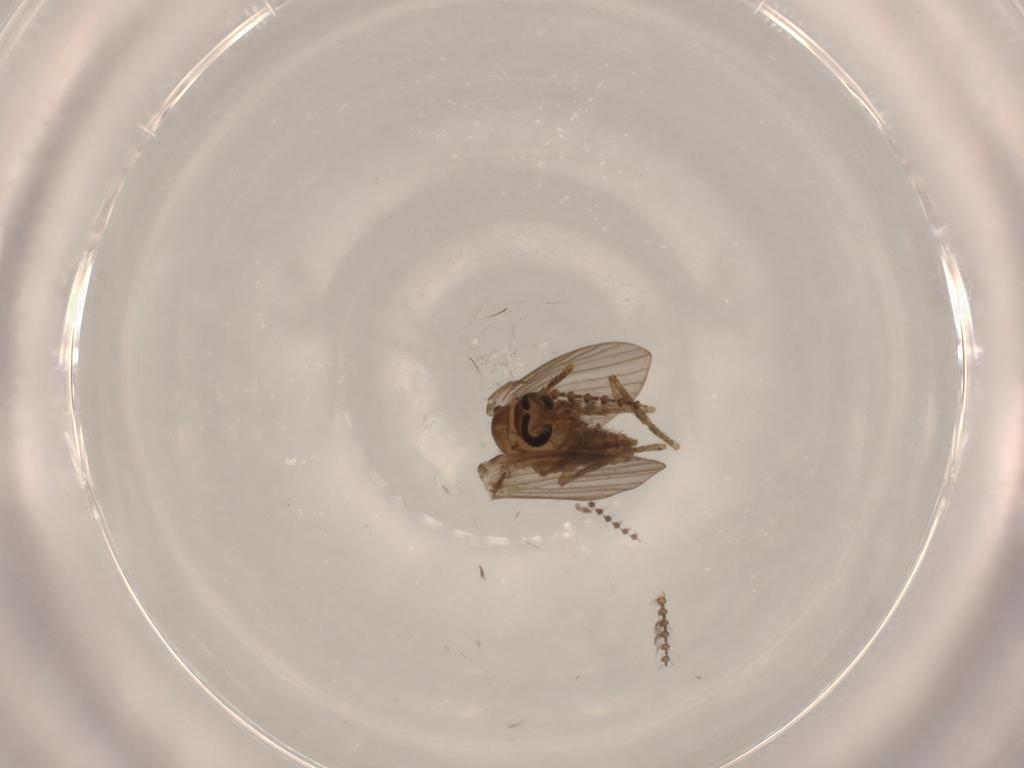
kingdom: Animalia
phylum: Arthropoda
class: Insecta
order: Diptera
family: Psychodidae
